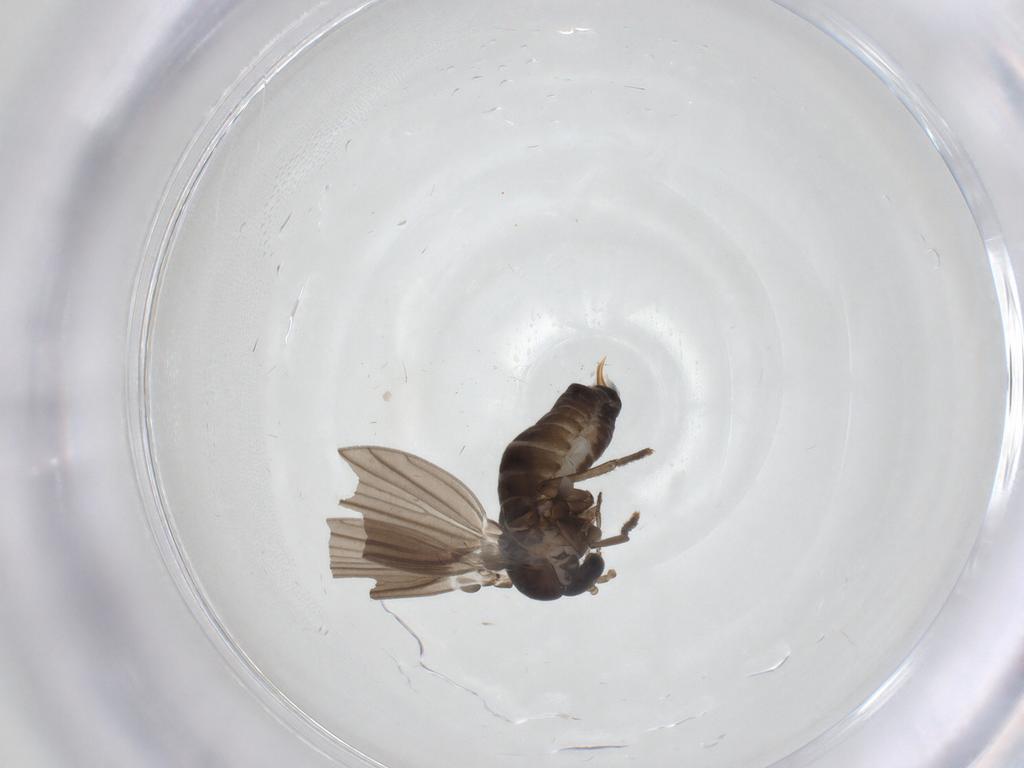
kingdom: Animalia
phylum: Arthropoda
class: Insecta
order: Diptera
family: Psychodidae
